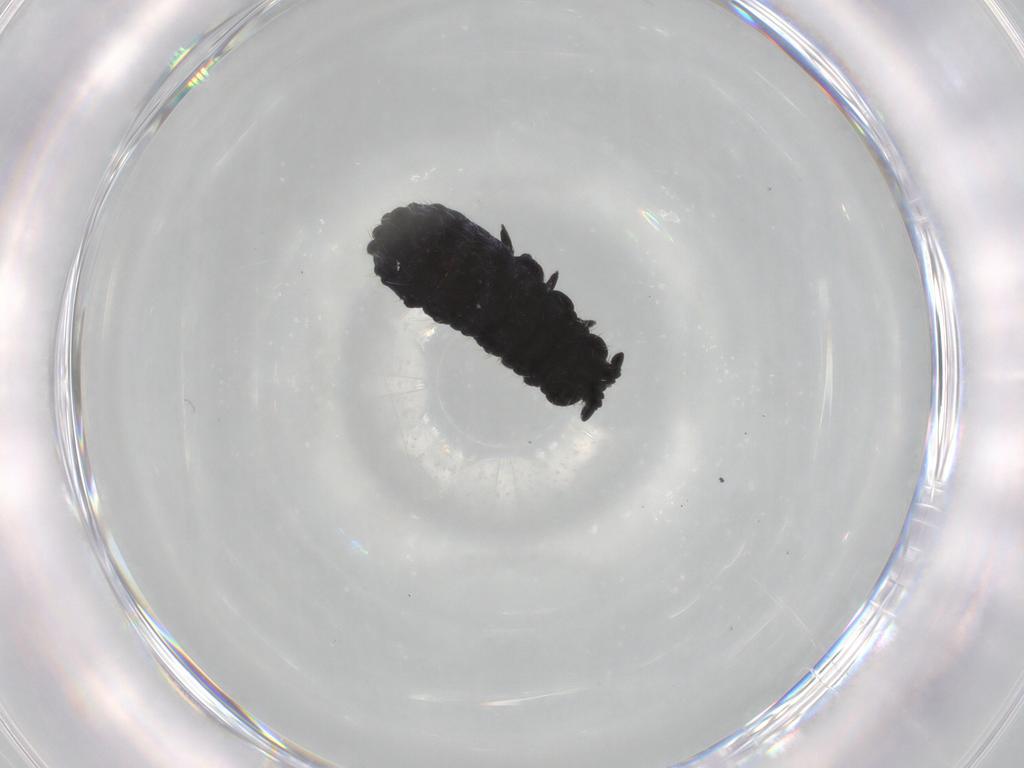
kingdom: Animalia
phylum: Arthropoda
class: Collembola
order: Poduromorpha
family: Neanuridae
